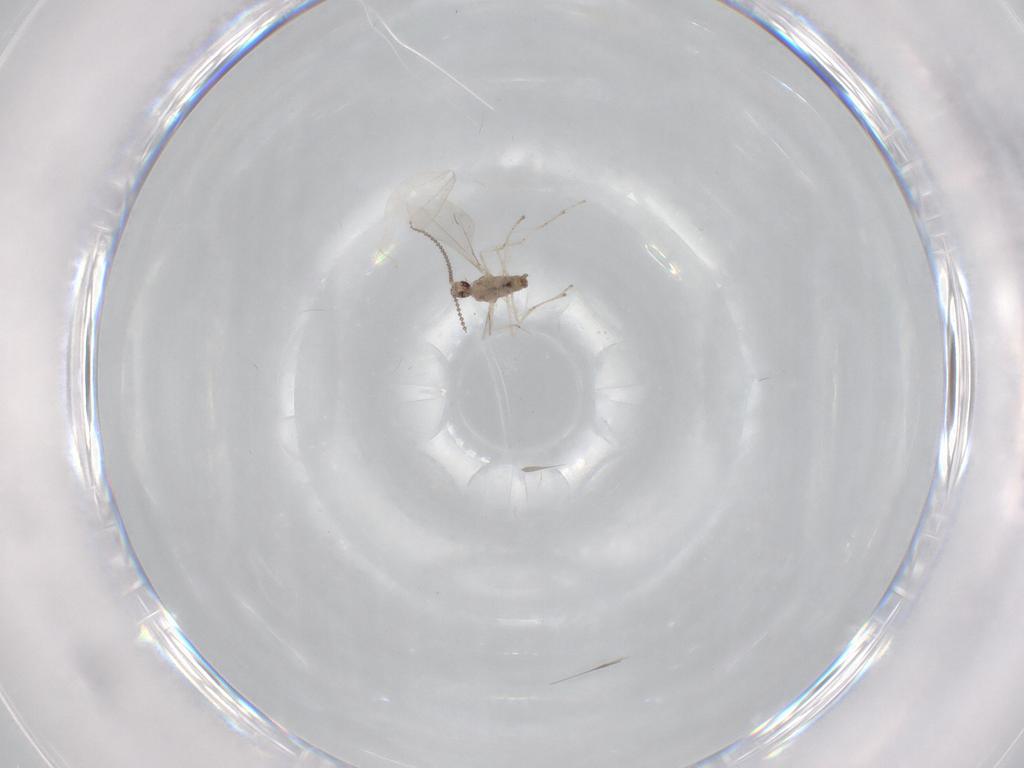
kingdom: Animalia
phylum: Arthropoda
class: Insecta
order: Diptera
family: Cecidomyiidae
